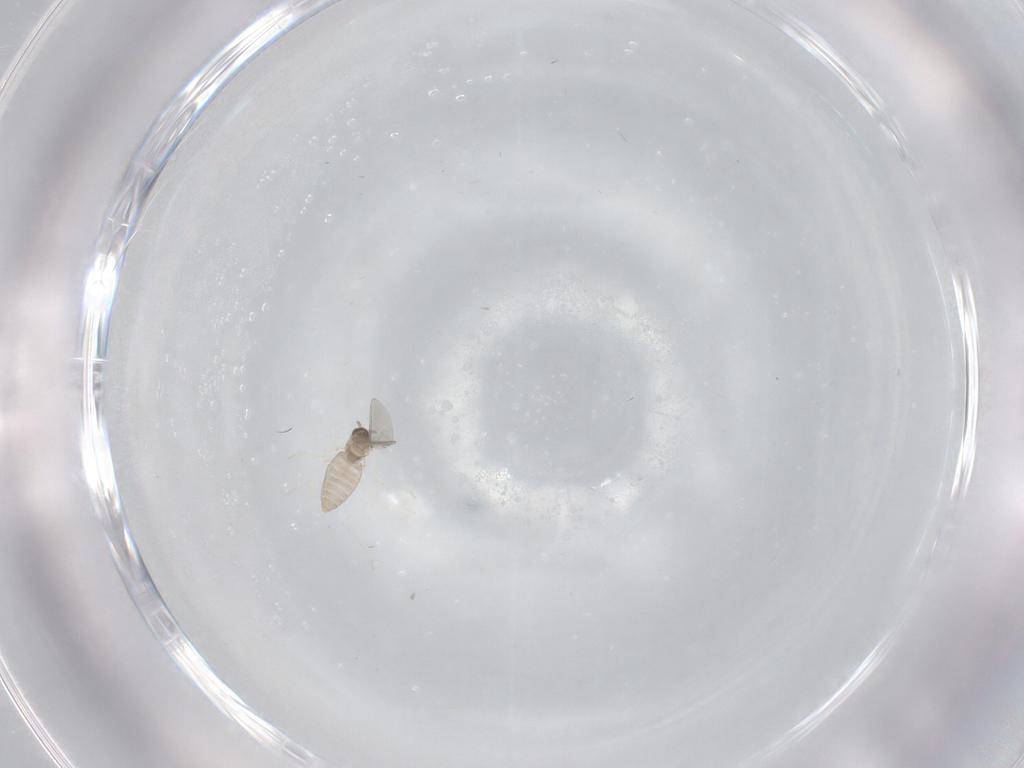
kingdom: Animalia
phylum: Arthropoda
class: Insecta
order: Diptera
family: Cecidomyiidae
